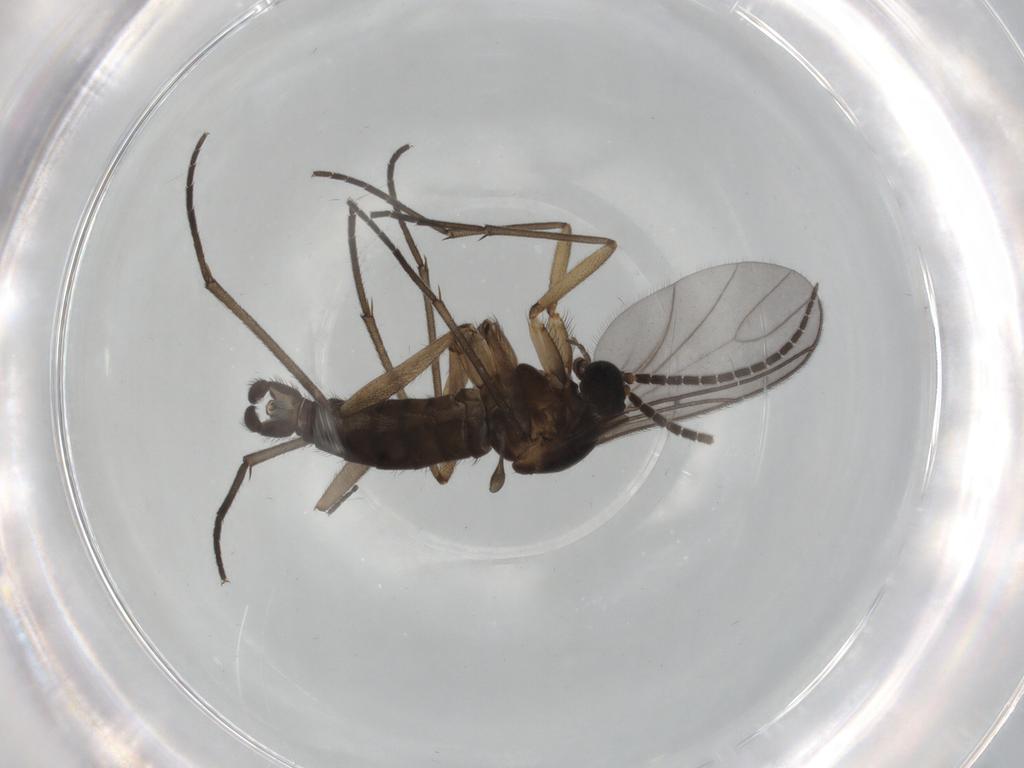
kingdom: Animalia
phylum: Arthropoda
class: Insecta
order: Diptera
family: Sciaridae
